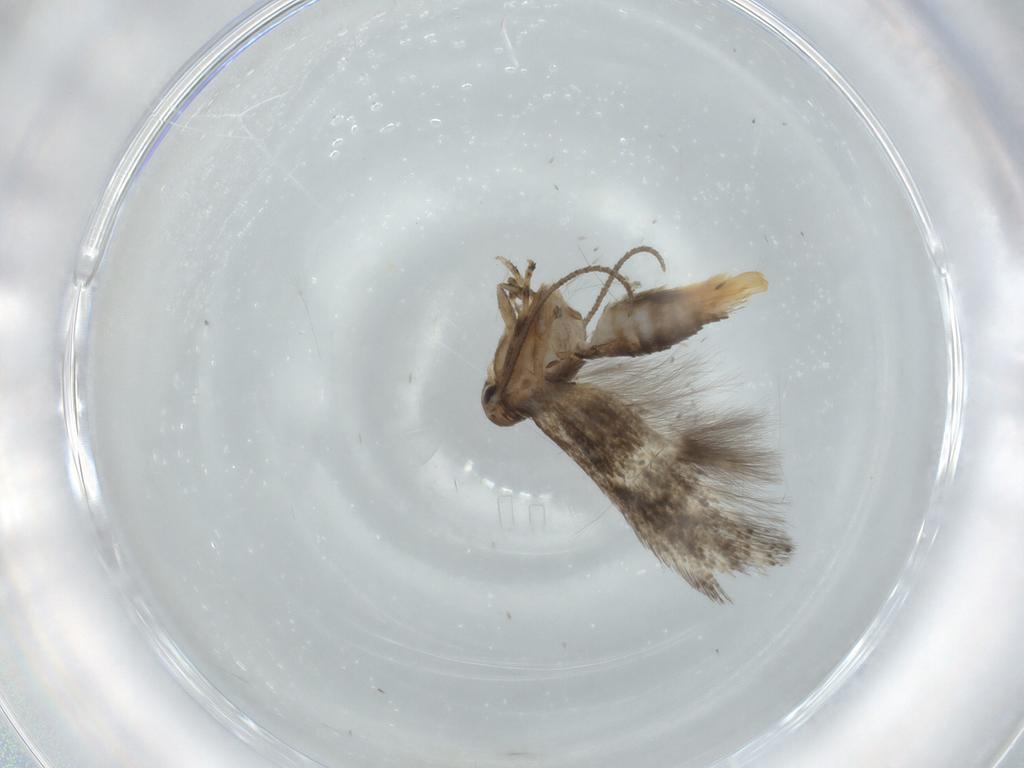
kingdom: Animalia
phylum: Arthropoda
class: Insecta
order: Lepidoptera
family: Elachistidae
